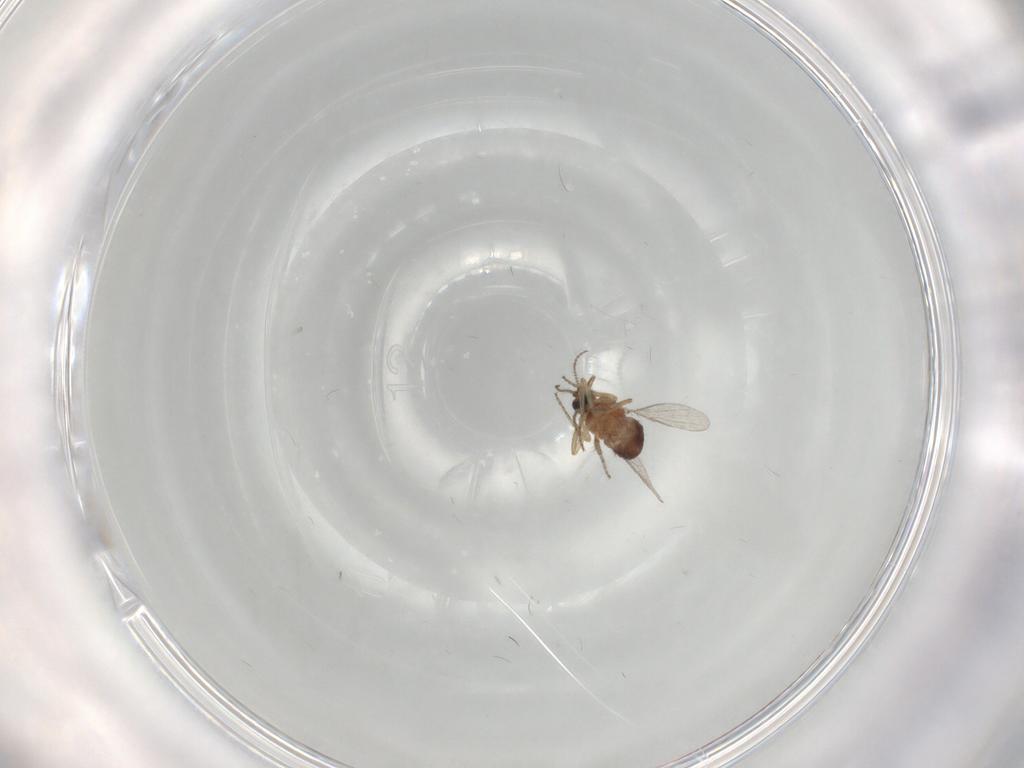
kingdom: Animalia
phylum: Arthropoda
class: Insecta
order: Diptera
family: Ceratopogonidae
